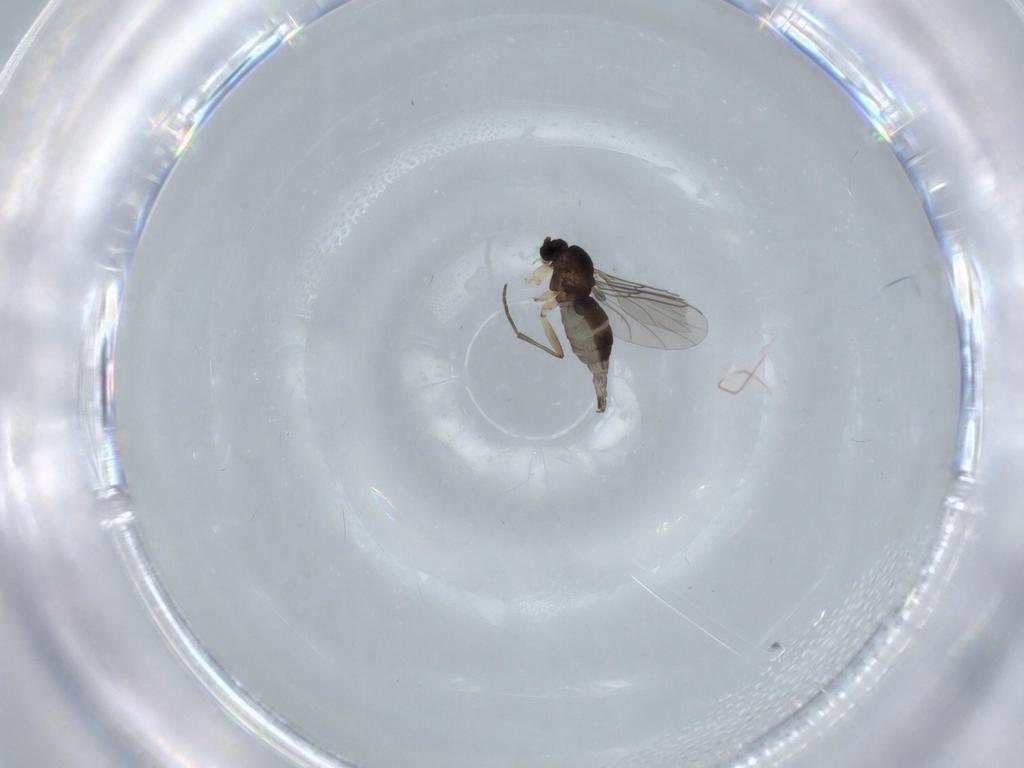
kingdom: Animalia
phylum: Arthropoda
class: Insecta
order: Diptera
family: Sciaridae
